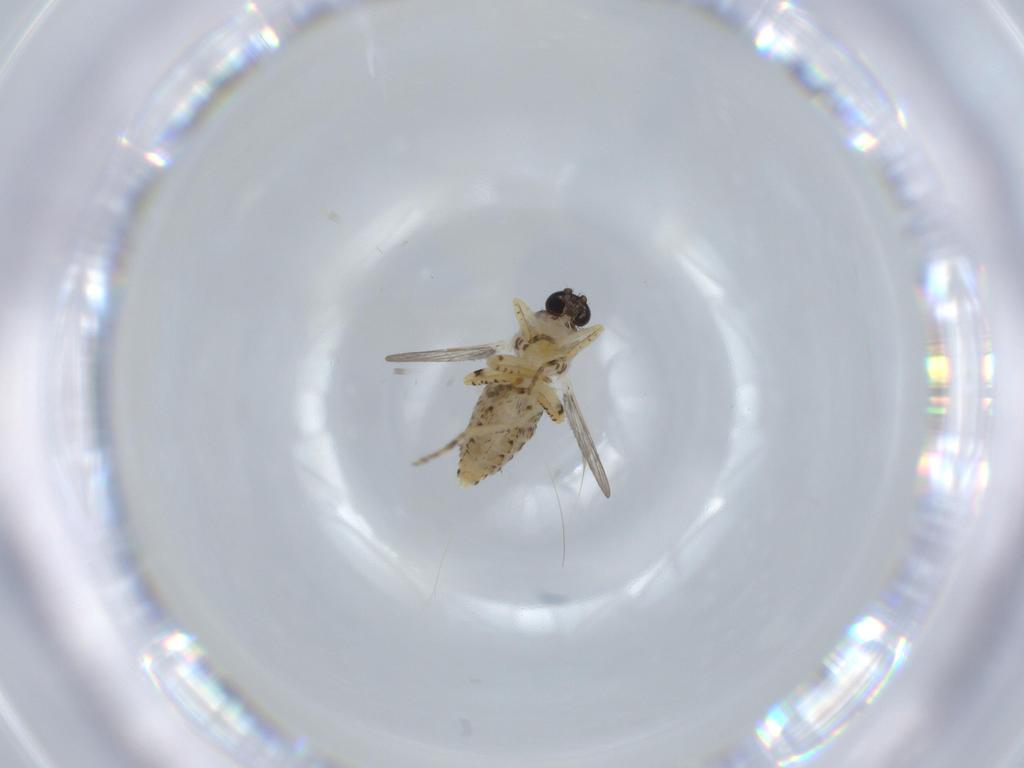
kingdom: Animalia
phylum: Arthropoda
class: Insecta
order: Diptera
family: Ceratopogonidae
